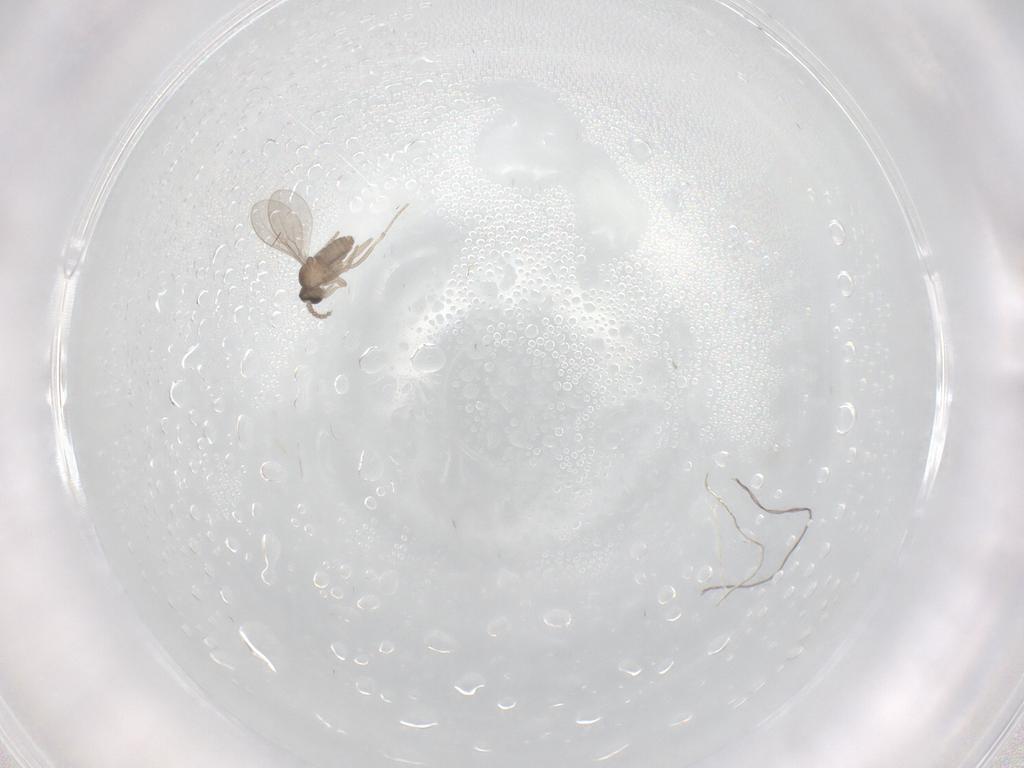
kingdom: Animalia
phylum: Arthropoda
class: Insecta
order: Diptera
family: Cecidomyiidae
